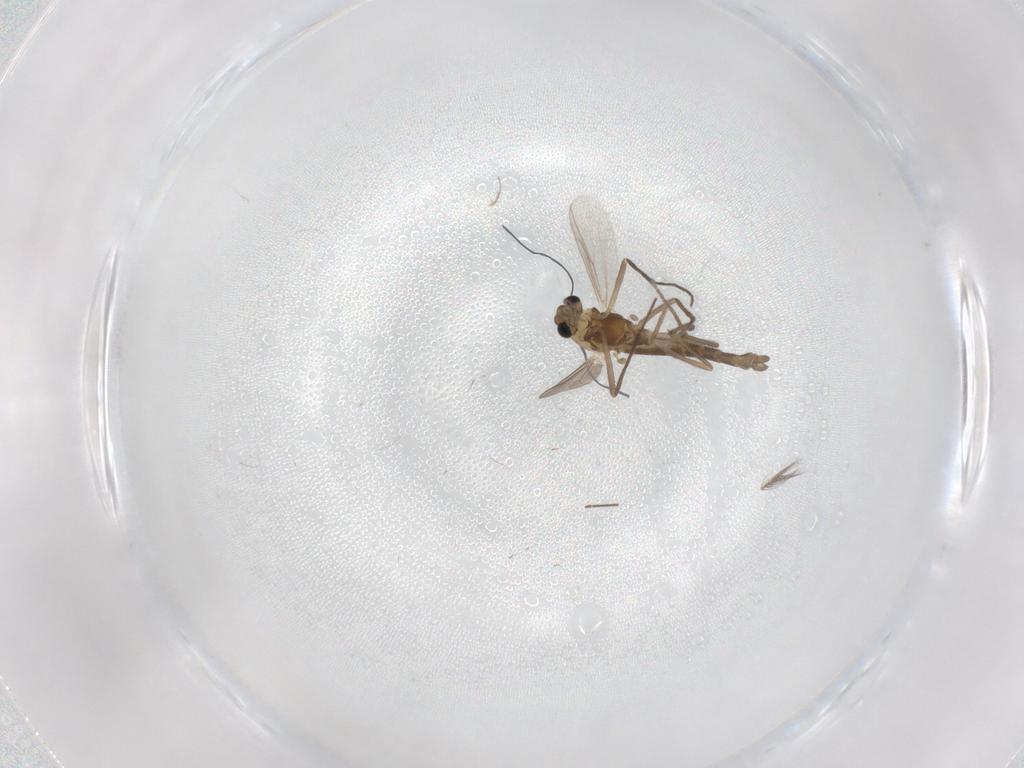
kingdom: Animalia
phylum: Arthropoda
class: Insecta
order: Diptera
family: Chironomidae
